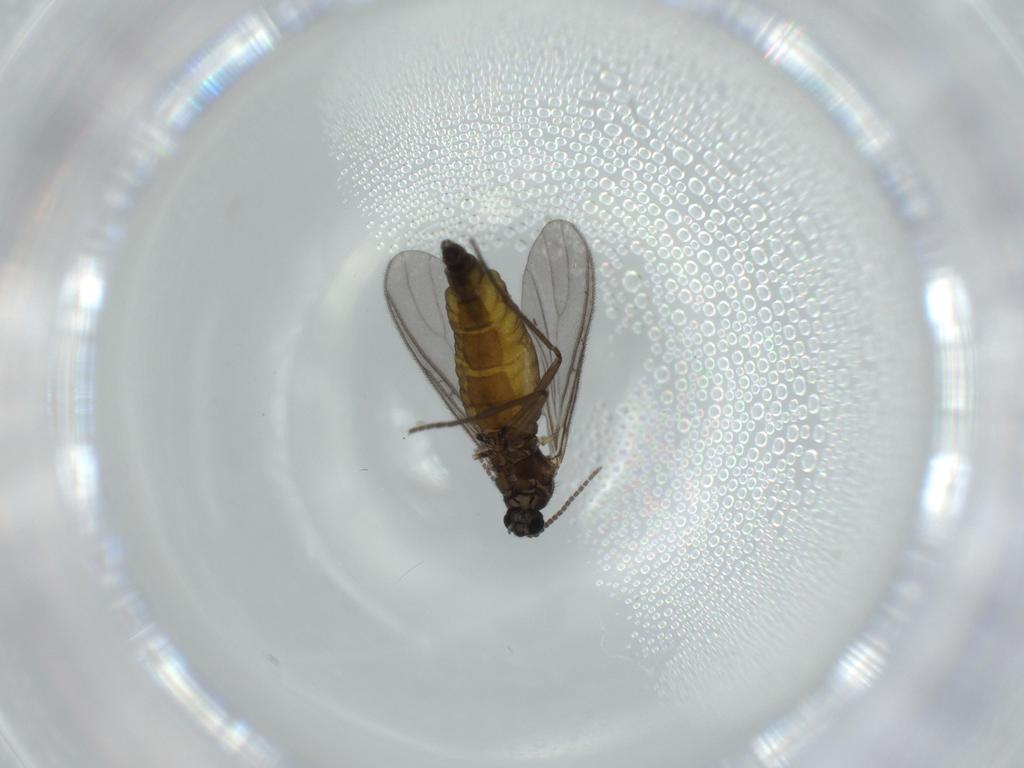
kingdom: Animalia
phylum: Arthropoda
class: Insecta
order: Diptera
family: Sciaridae
